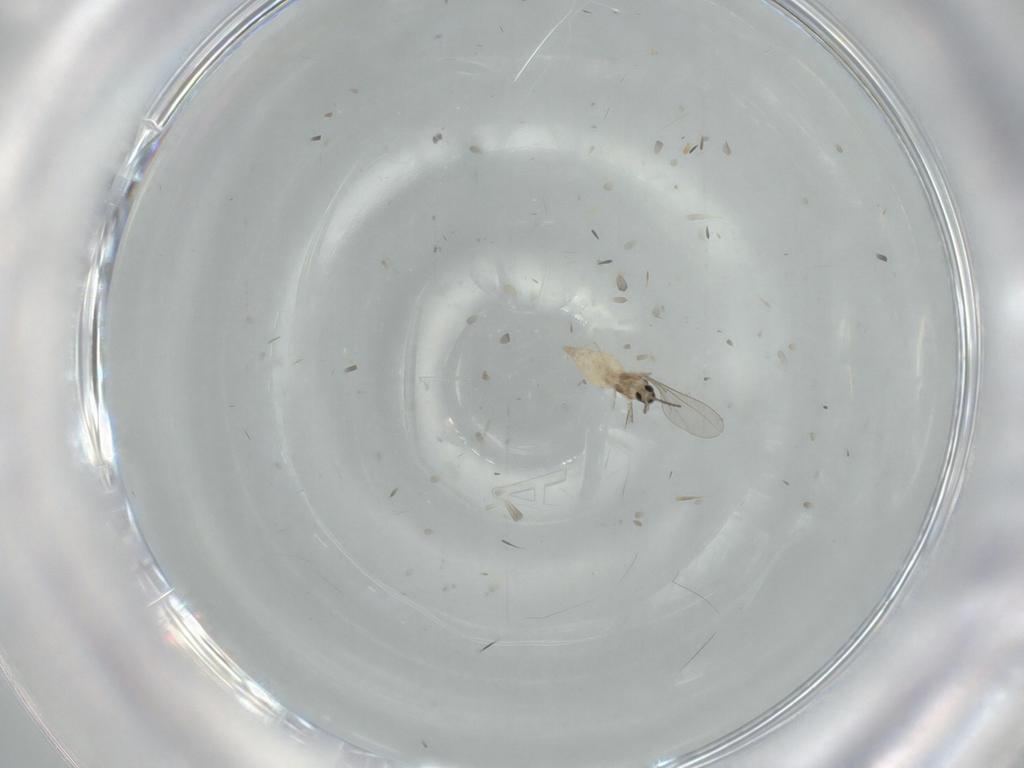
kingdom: Animalia
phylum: Arthropoda
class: Insecta
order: Diptera
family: Cecidomyiidae
